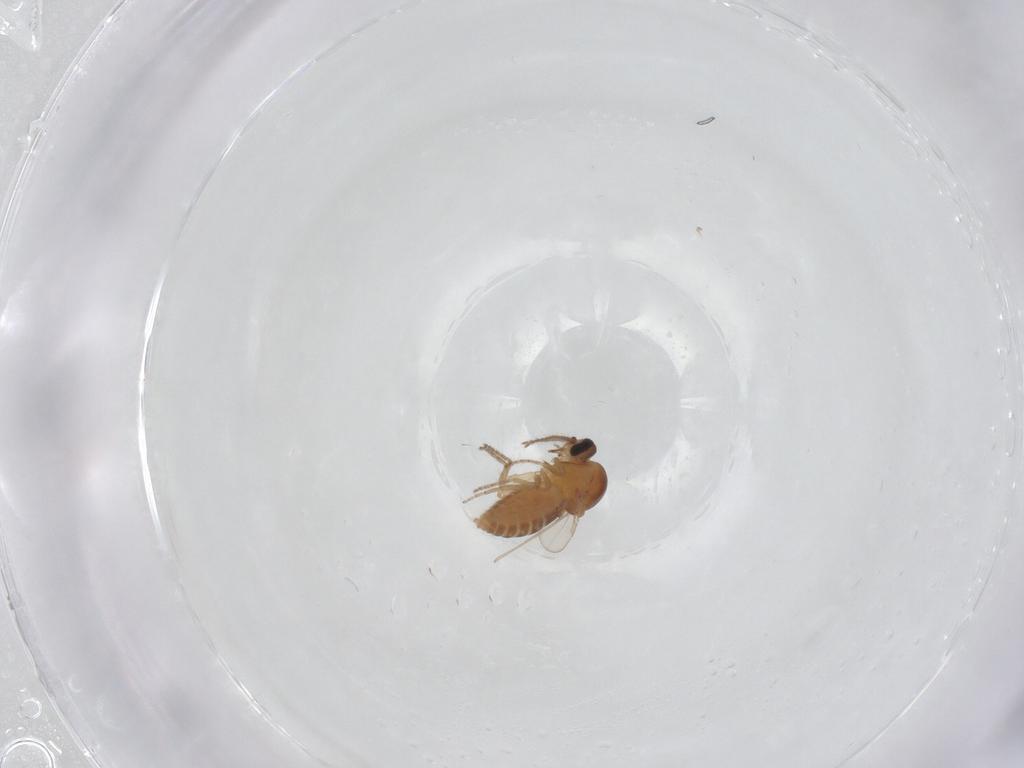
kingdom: Animalia
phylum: Arthropoda
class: Insecta
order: Diptera
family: Ceratopogonidae
